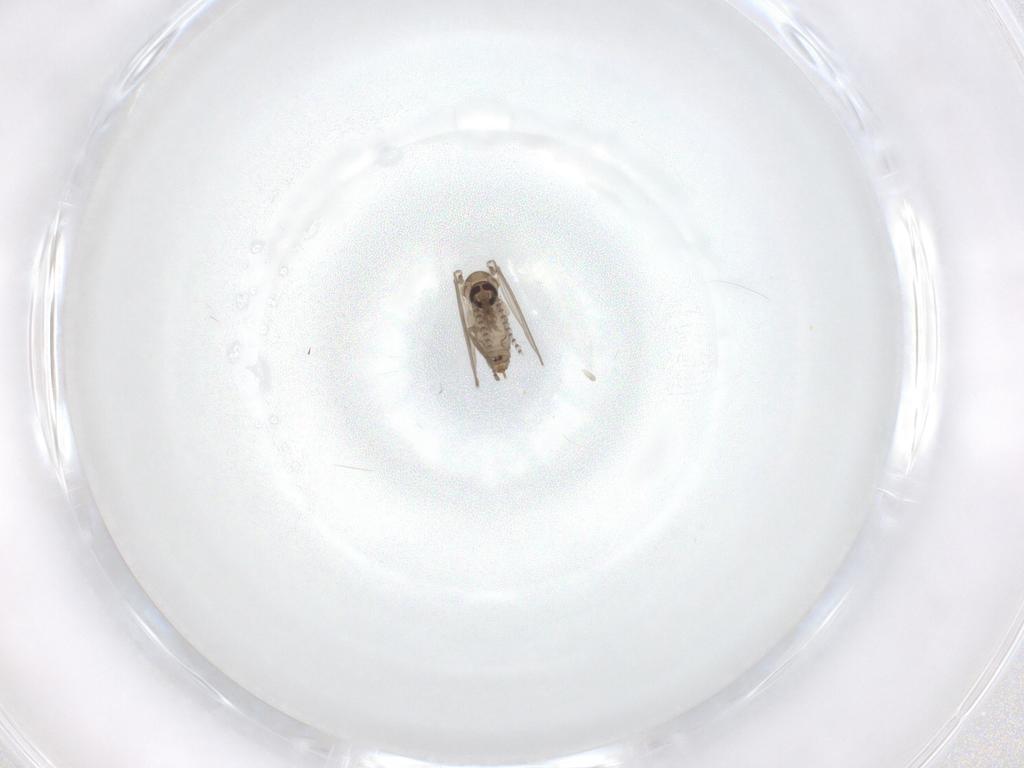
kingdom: Animalia
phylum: Arthropoda
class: Insecta
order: Diptera
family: Psychodidae
